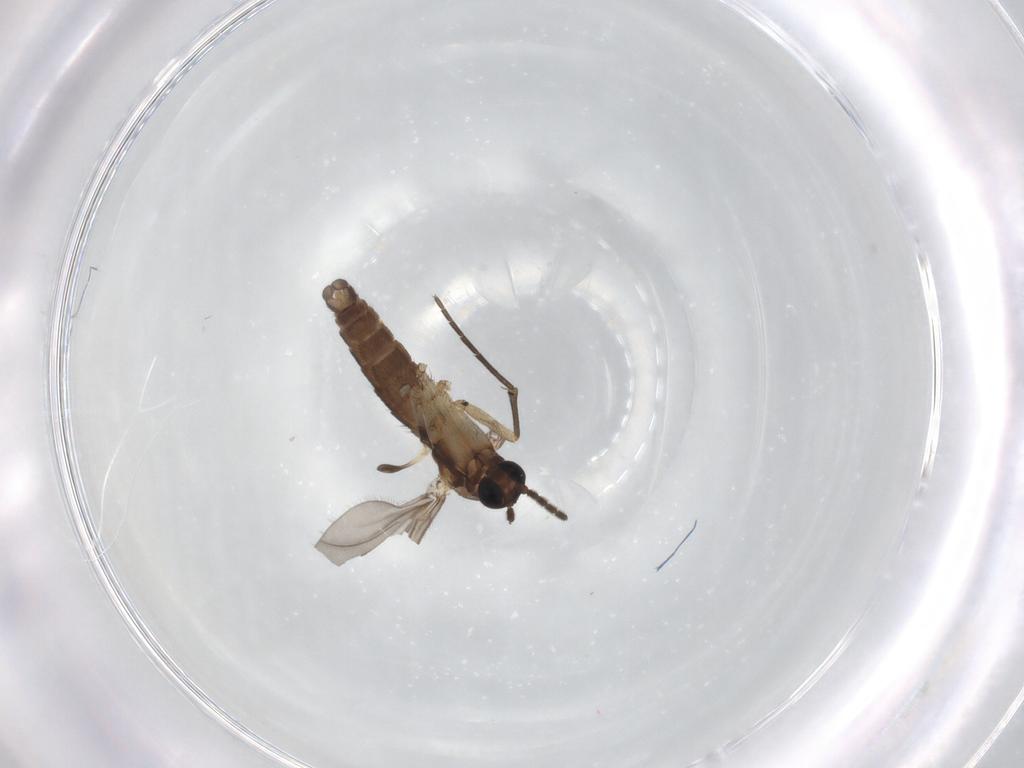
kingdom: Animalia
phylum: Arthropoda
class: Insecta
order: Diptera
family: Sciaridae
